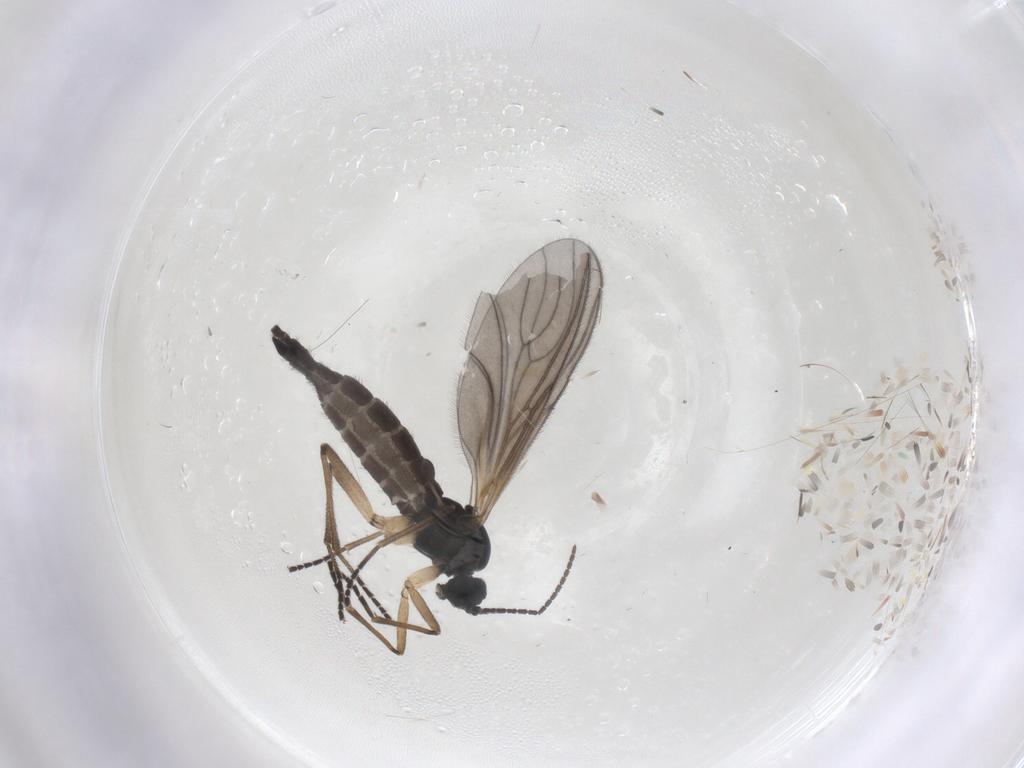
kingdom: Animalia
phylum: Arthropoda
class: Insecta
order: Diptera
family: Sciaridae
